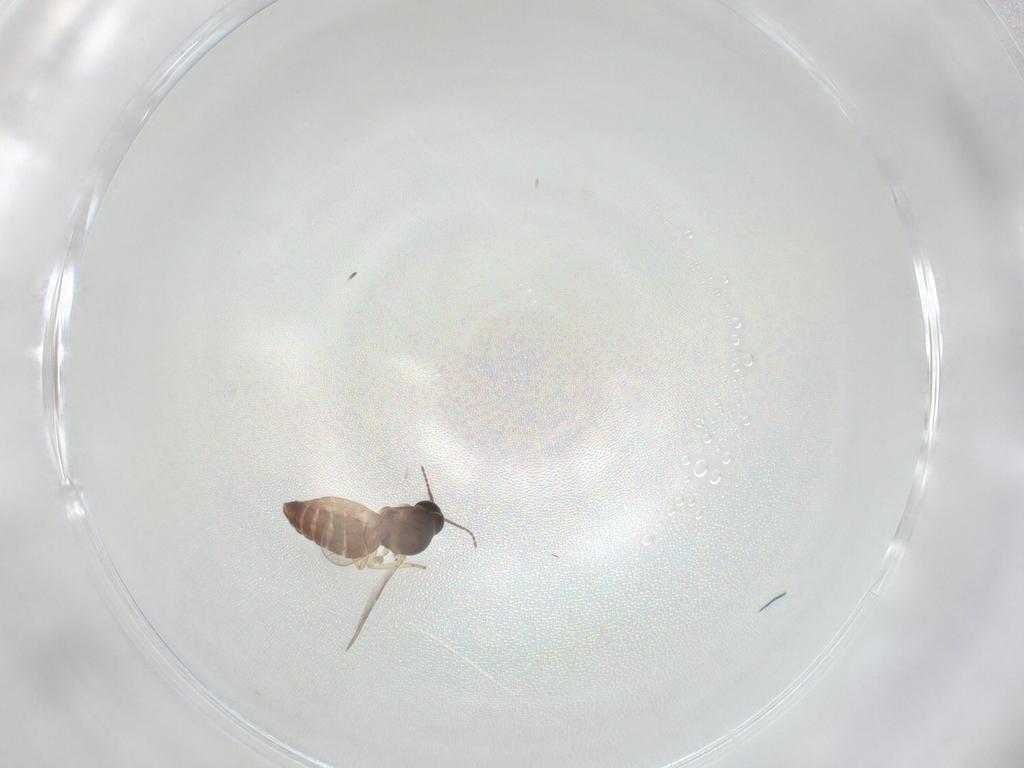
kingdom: Animalia
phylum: Arthropoda
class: Insecta
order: Diptera
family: Ceratopogonidae
